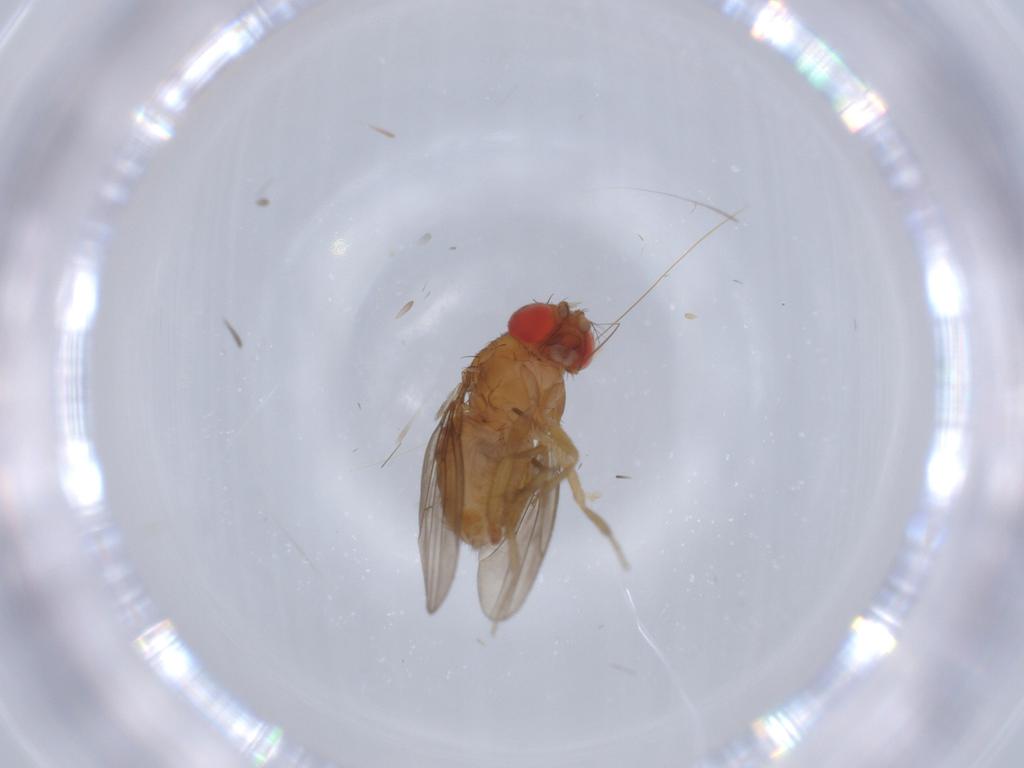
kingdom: Animalia
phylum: Arthropoda
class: Insecta
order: Diptera
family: Drosophilidae
